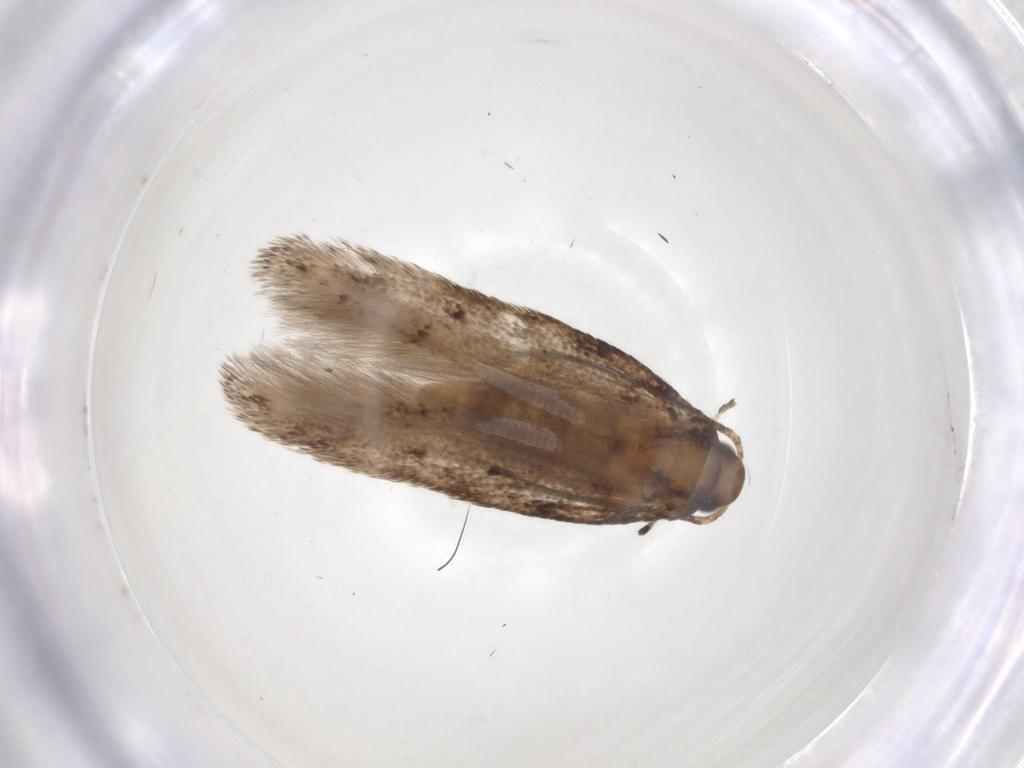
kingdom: Animalia
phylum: Arthropoda
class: Insecta
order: Lepidoptera
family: Gelechiidae
